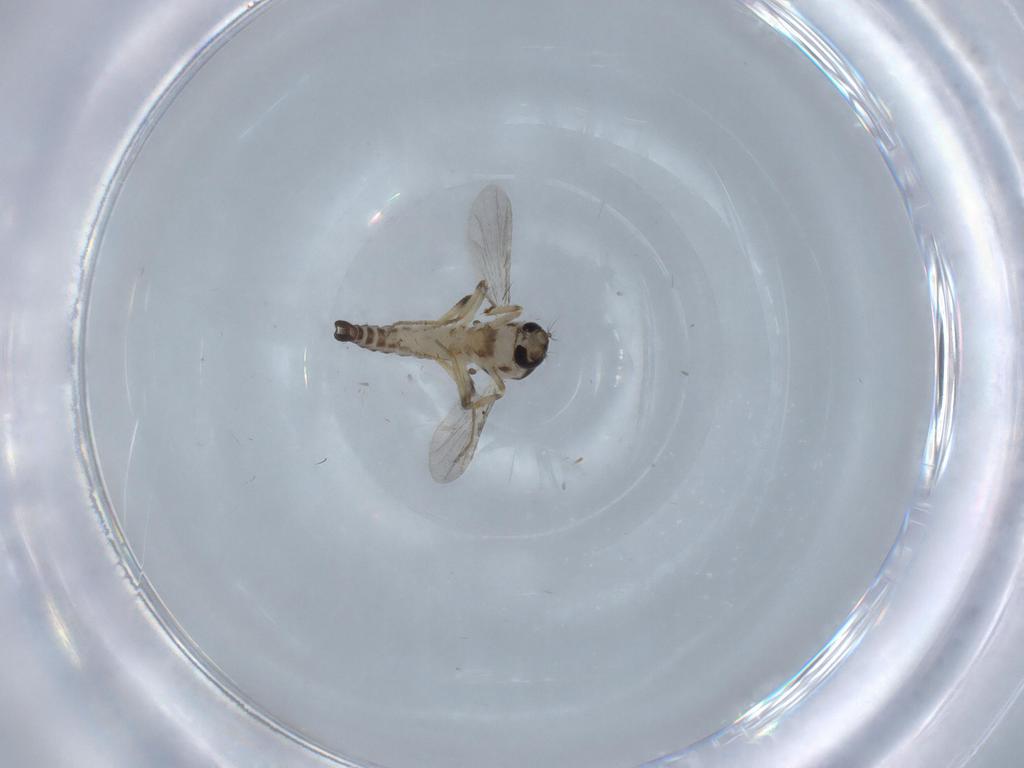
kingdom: Animalia
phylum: Arthropoda
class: Insecta
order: Diptera
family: Ceratopogonidae
